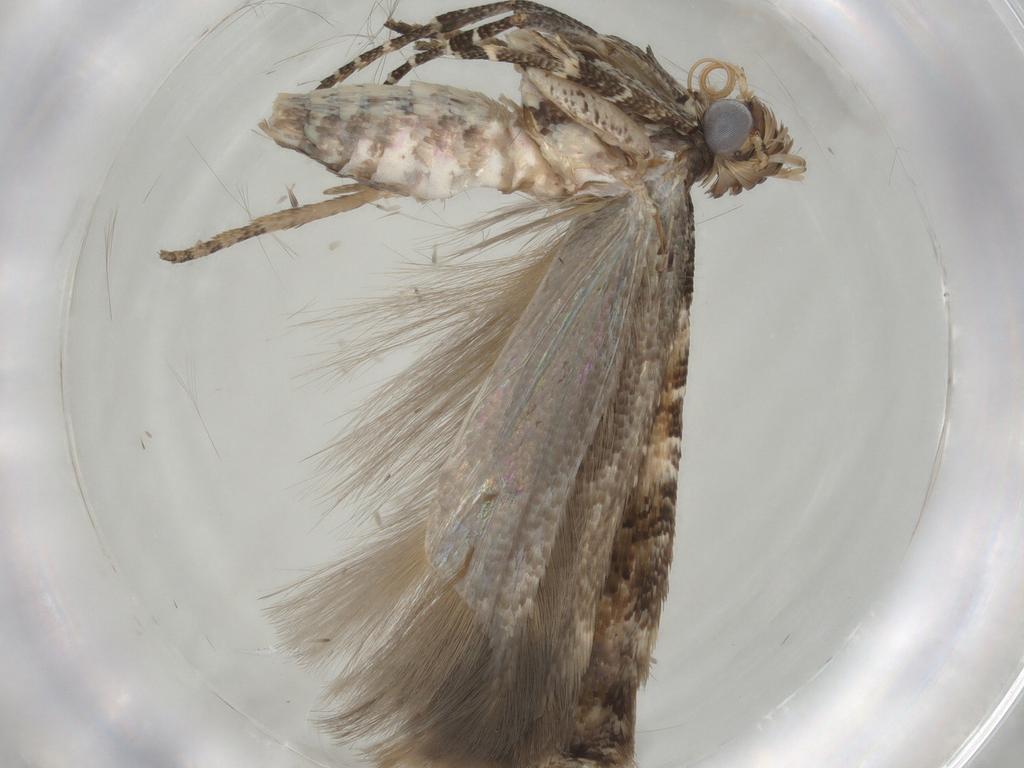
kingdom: Animalia
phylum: Arthropoda
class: Insecta
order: Lepidoptera
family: Gelechiidae
